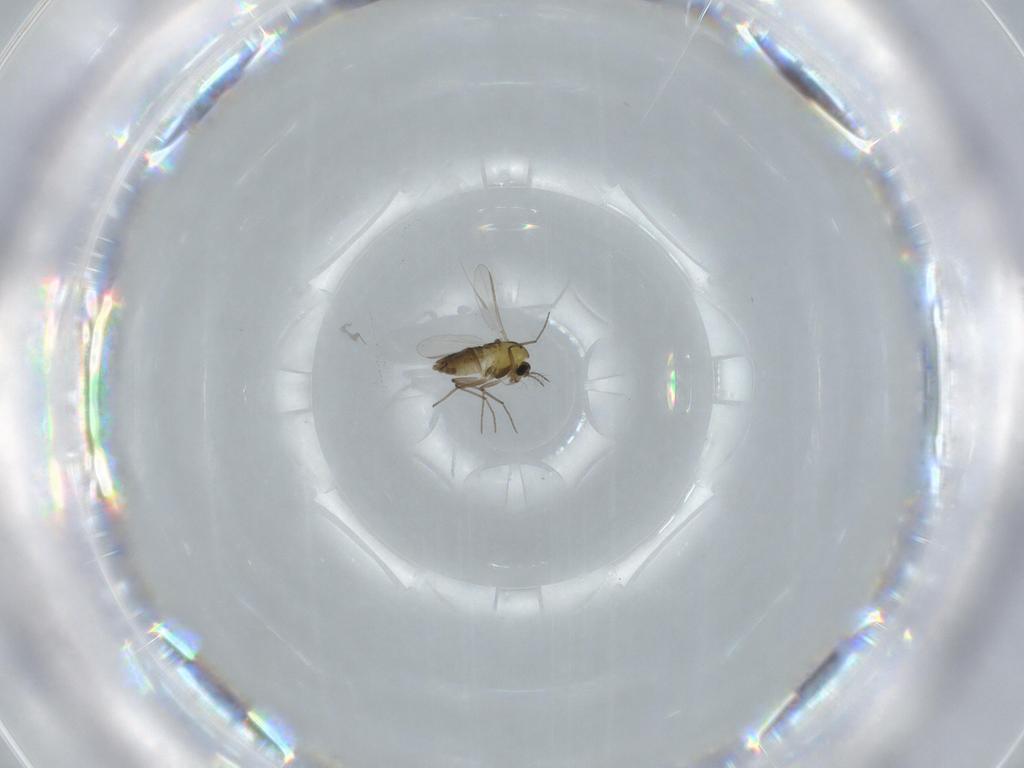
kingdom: Animalia
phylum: Arthropoda
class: Insecta
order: Diptera
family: Chironomidae
